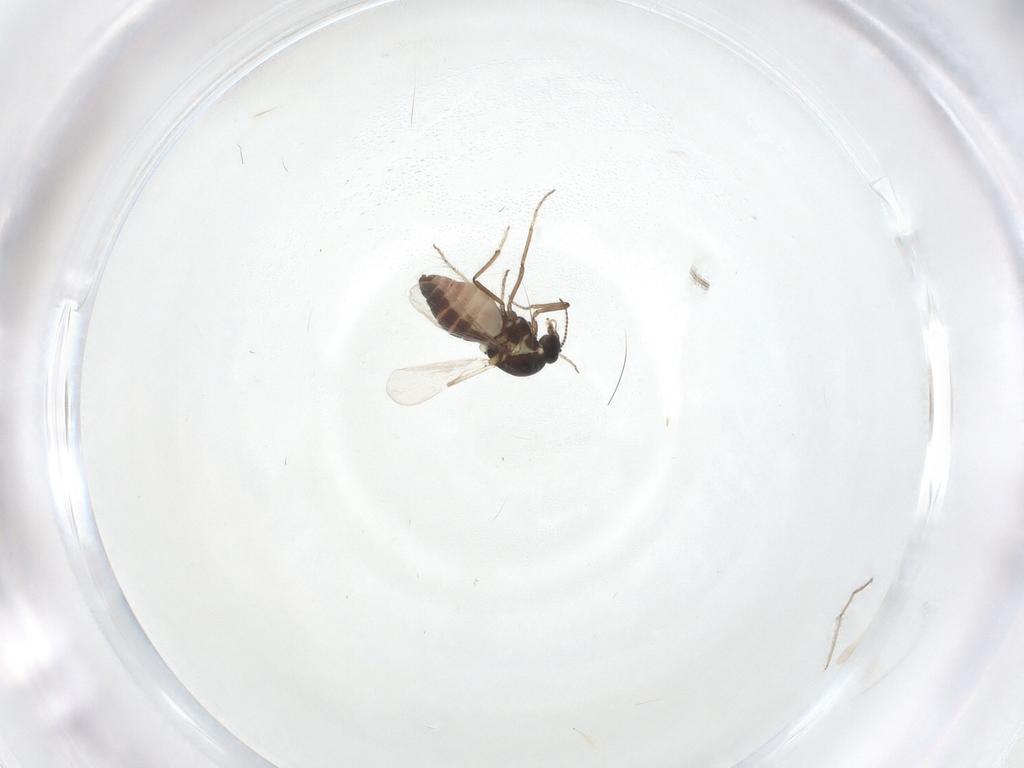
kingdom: Animalia
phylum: Arthropoda
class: Insecta
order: Diptera
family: Ceratopogonidae
